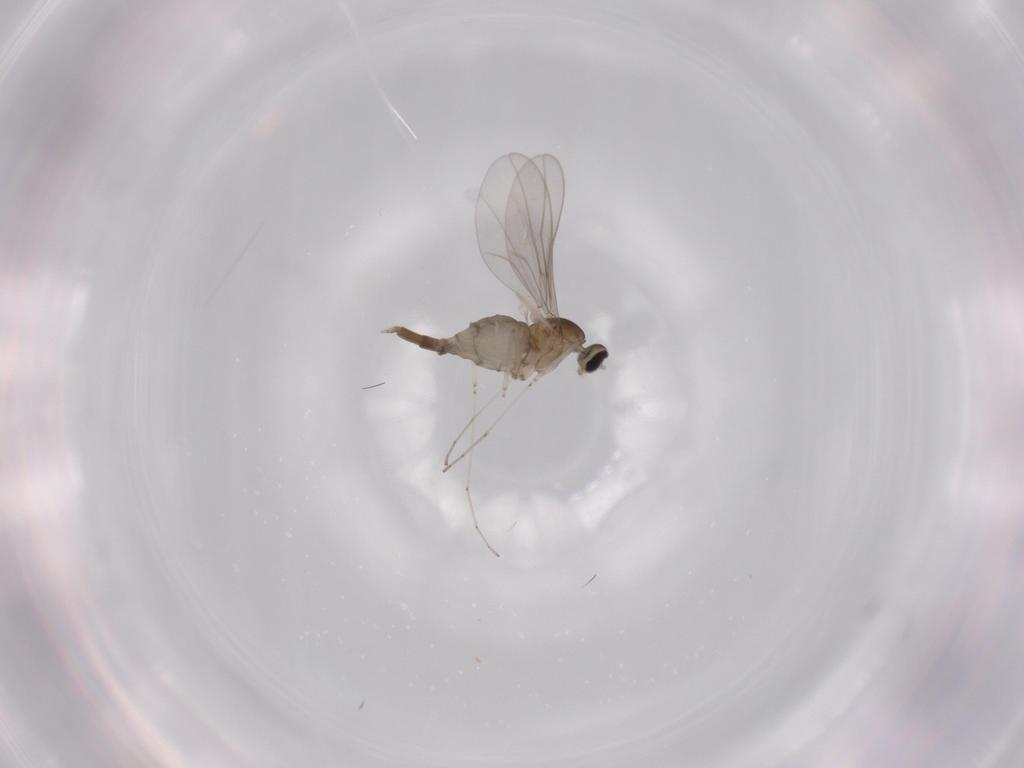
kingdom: Animalia
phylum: Arthropoda
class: Insecta
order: Diptera
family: Cecidomyiidae
